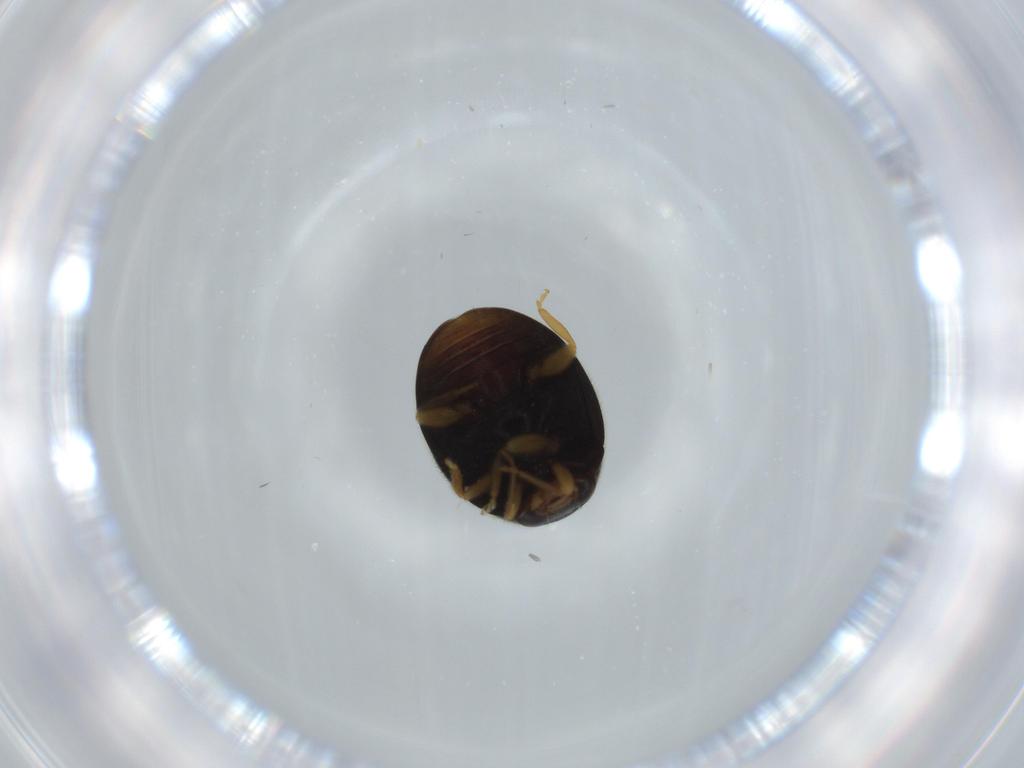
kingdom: Animalia
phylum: Arthropoda
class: Insecta
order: Coleoptera
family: Coccinellidae
